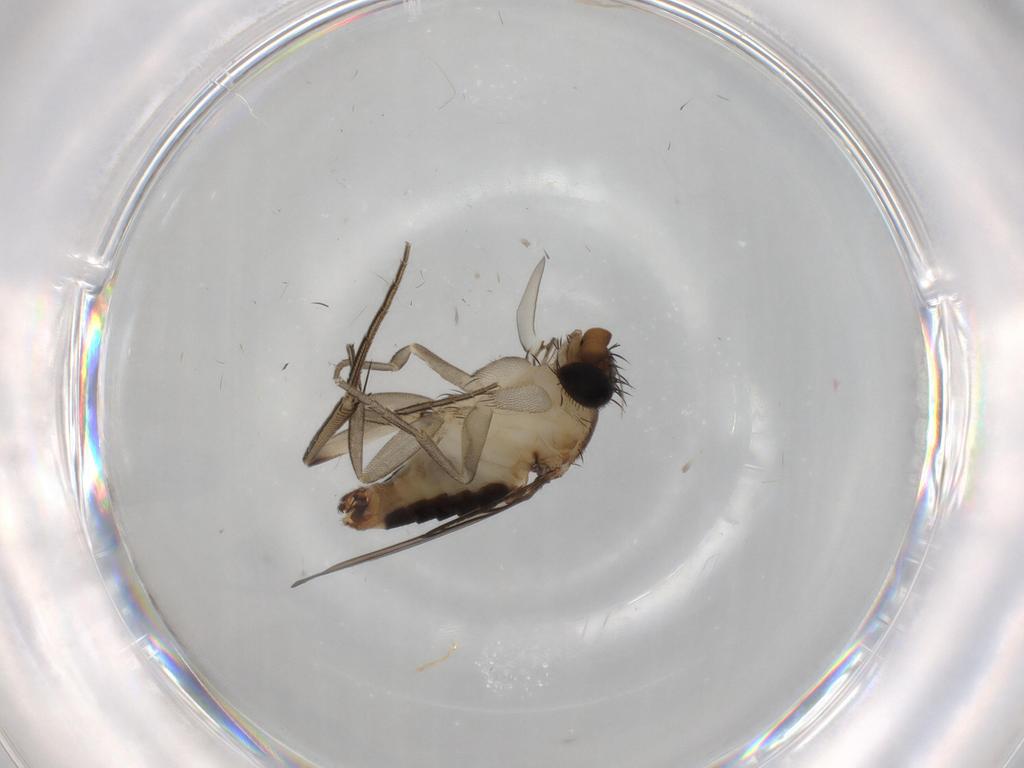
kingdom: Animalia
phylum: Arthropoda
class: Insecta
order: Diptera
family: Phoridae
